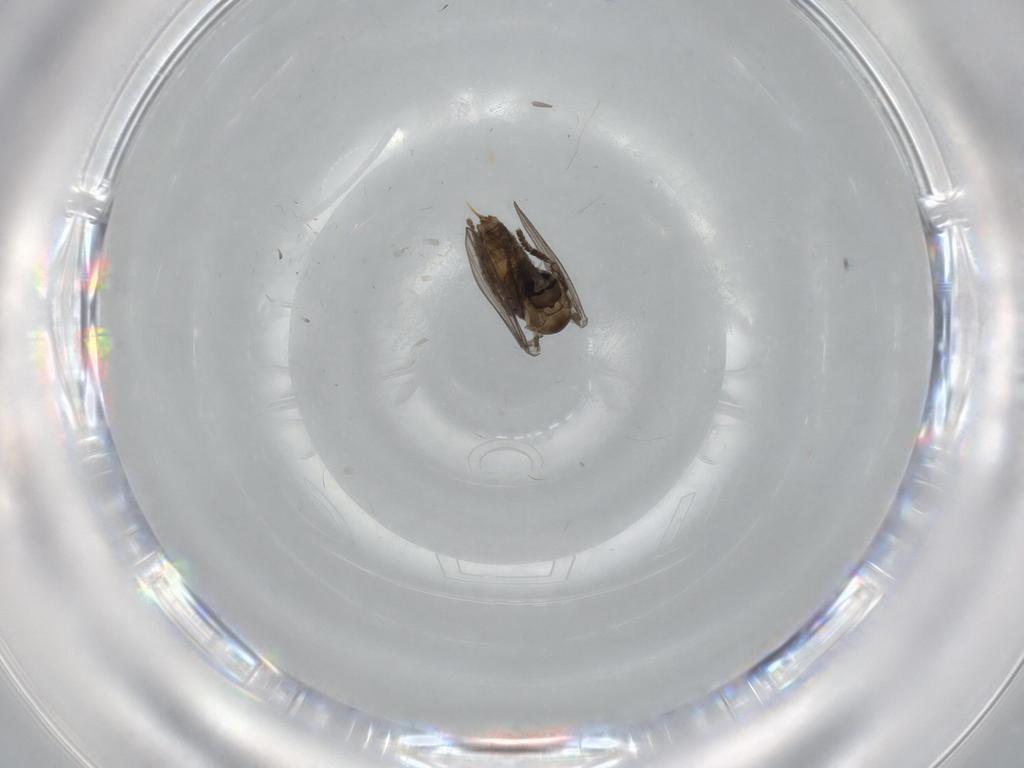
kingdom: Animalia
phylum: Arthropoda
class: Insecta
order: Diptera
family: Psychodidae
